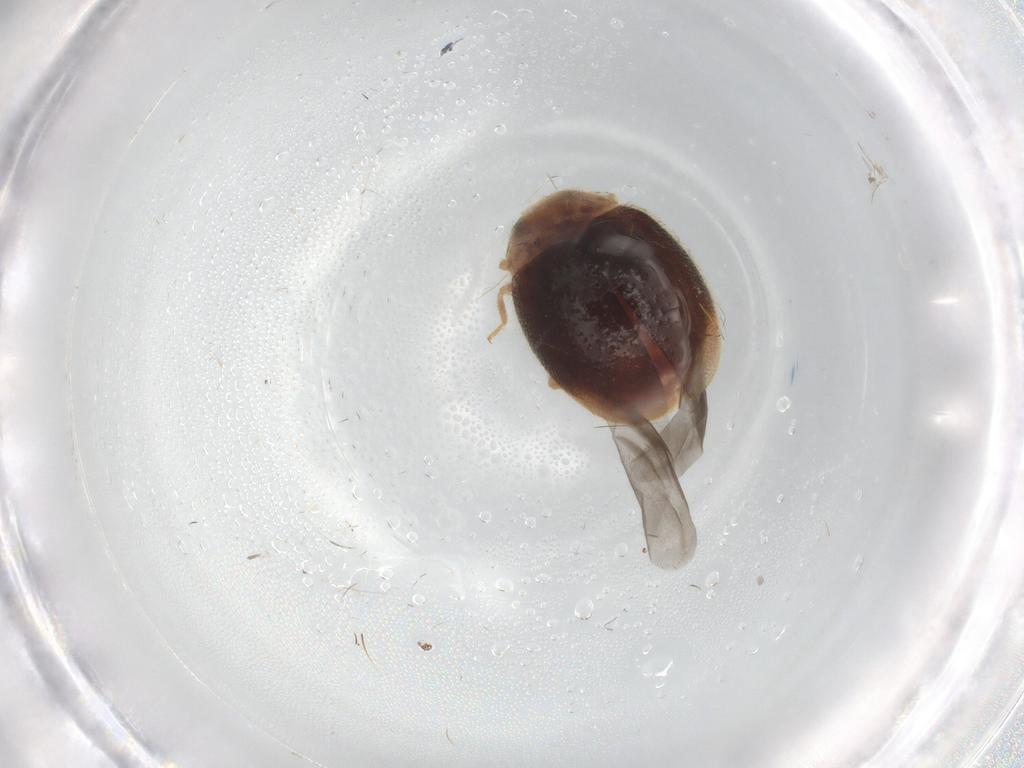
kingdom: Animalia
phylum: Arthropoda
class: Insecta
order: Coleoptera
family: Coccinellidae
